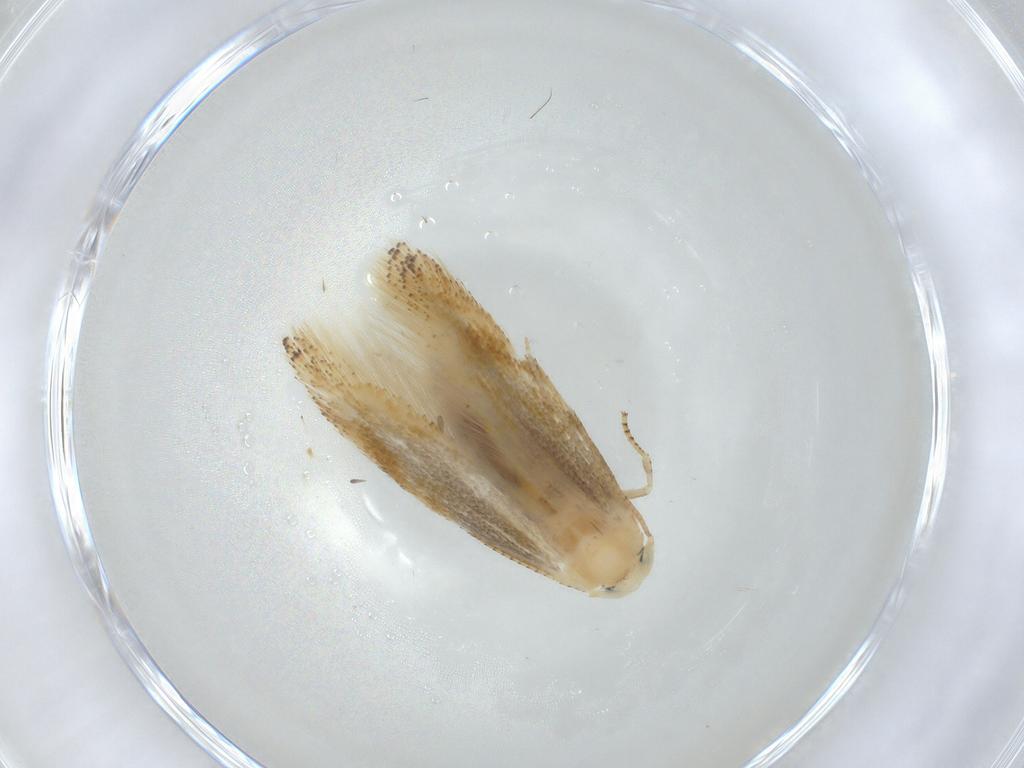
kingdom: Animalia
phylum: Arthropoda
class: Insecta
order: Lepidoptera
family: Bucculatricidae
